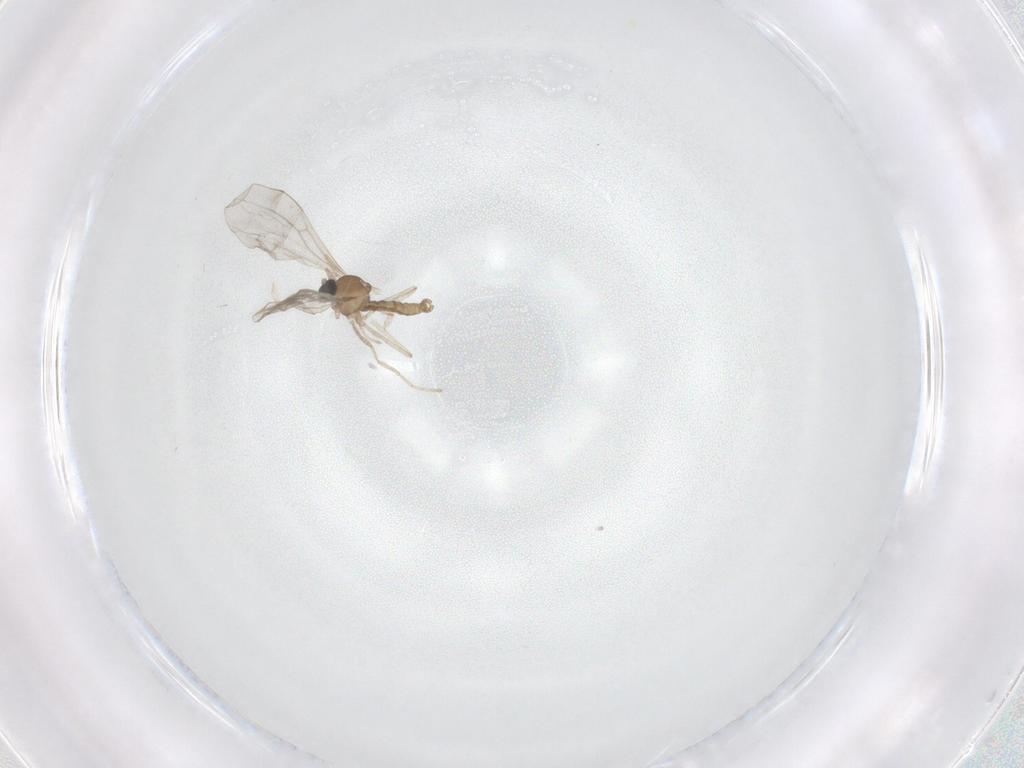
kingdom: Animalia
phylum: Arthropoda
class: Insecta
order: Diptera
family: Cecidomyiidae
